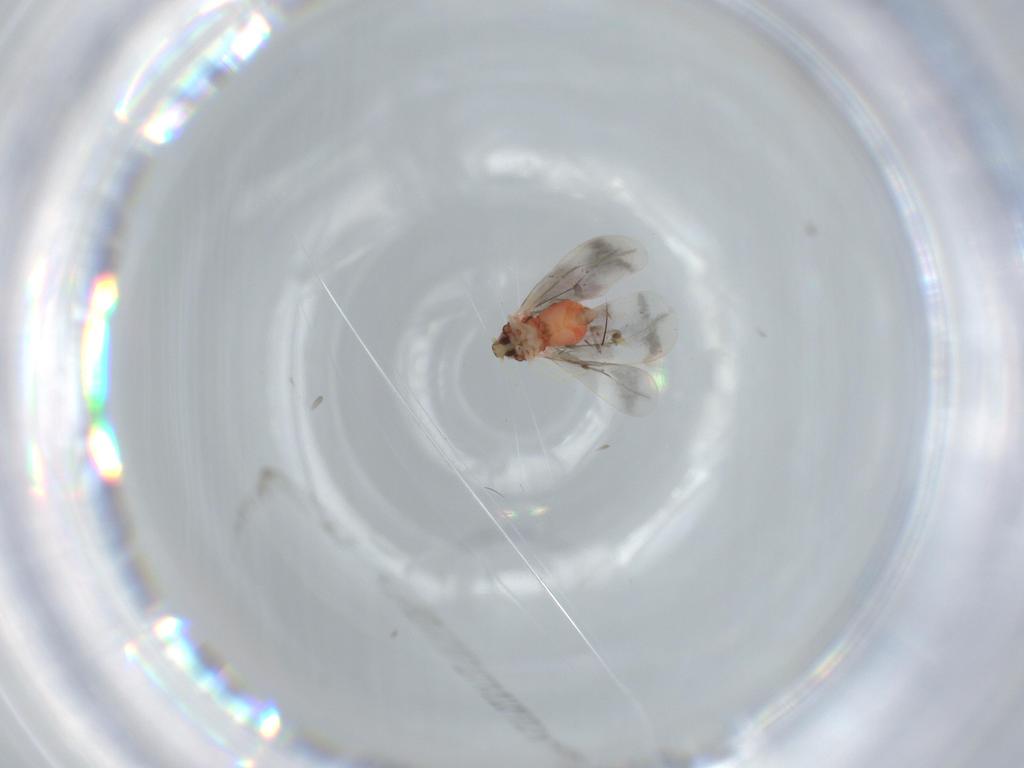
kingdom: Animalia
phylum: Arthropoda
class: Insecta
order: Hemiptera
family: Aleyrodidae
